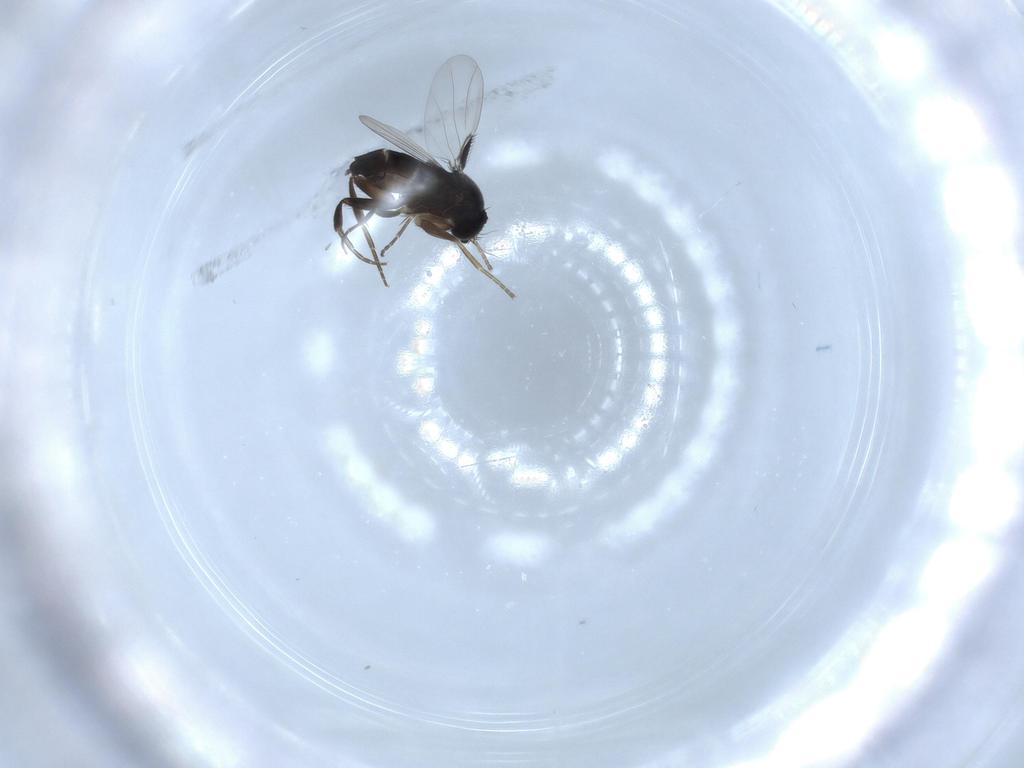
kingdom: Animalia
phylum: Arthropoda
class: Insecta
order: Diptera
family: Phoridae
